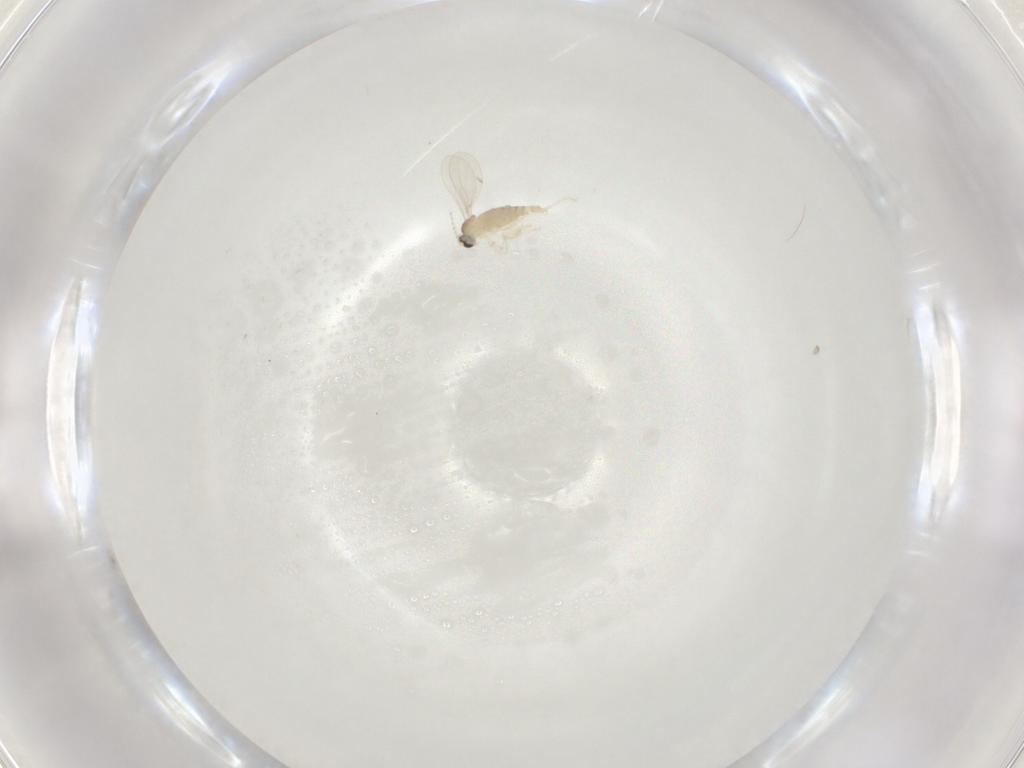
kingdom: Animalia
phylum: Arthropoda
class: Insecta
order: Diptera
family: Cecidomyiidae
